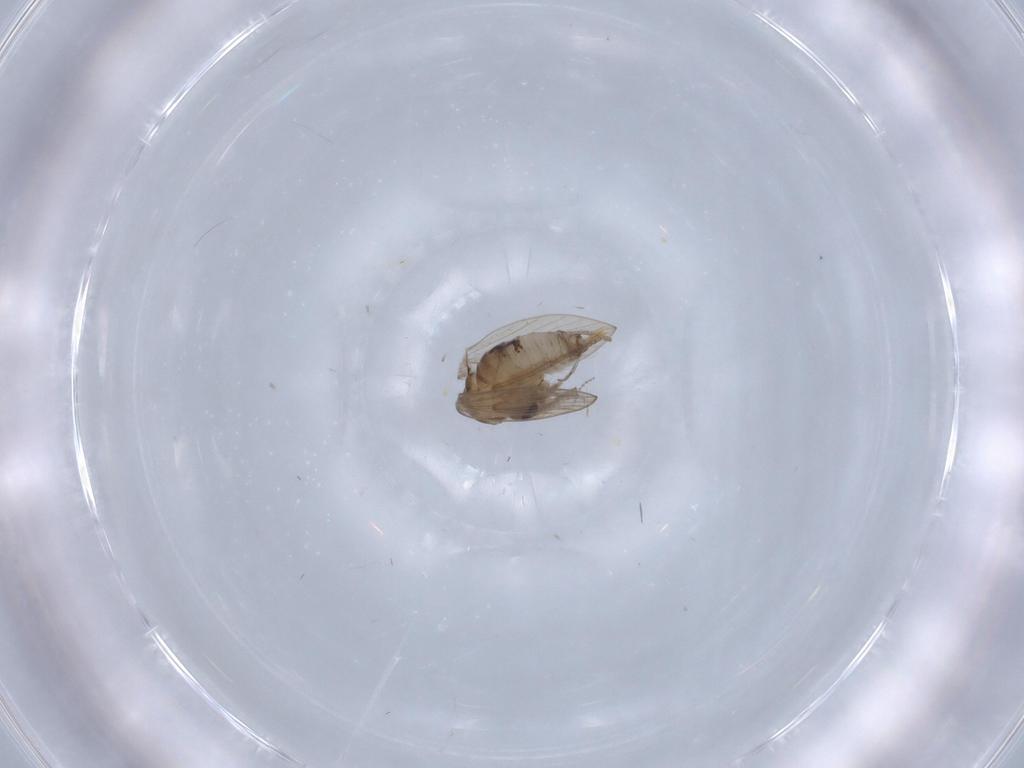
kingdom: Animalia
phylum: Arthropoda
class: Insecta
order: Diptera
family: Psychodidae
